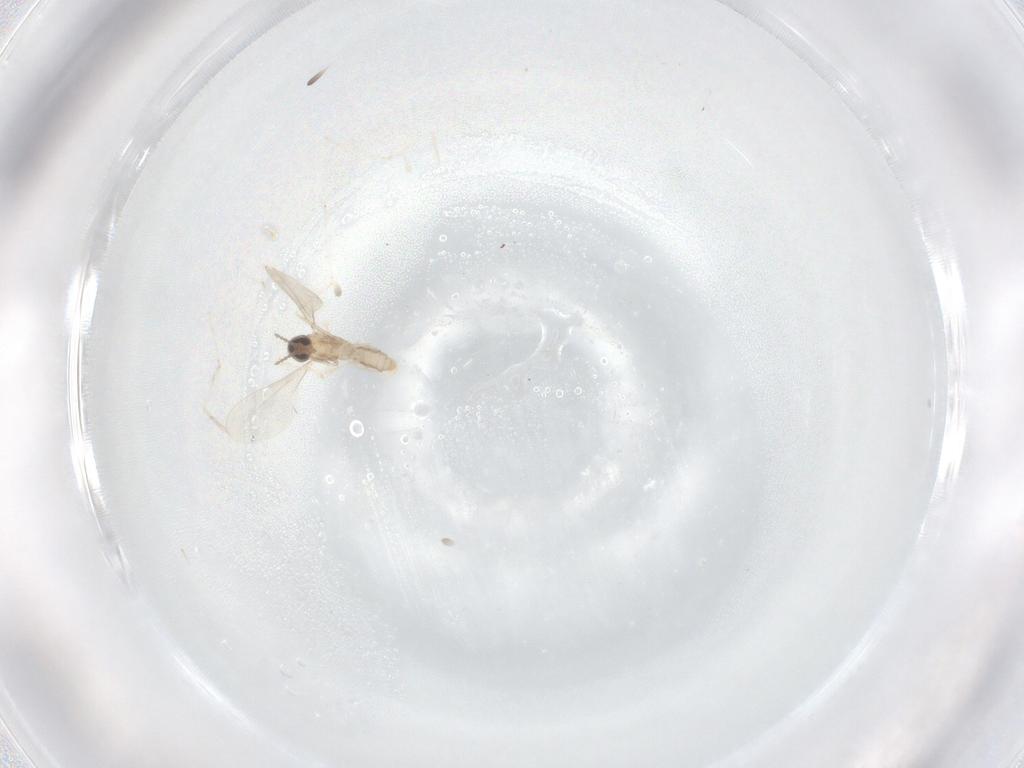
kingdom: Animalia
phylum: Arthropoda
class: Insecta
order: Diptera
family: Cecidomyiidae
